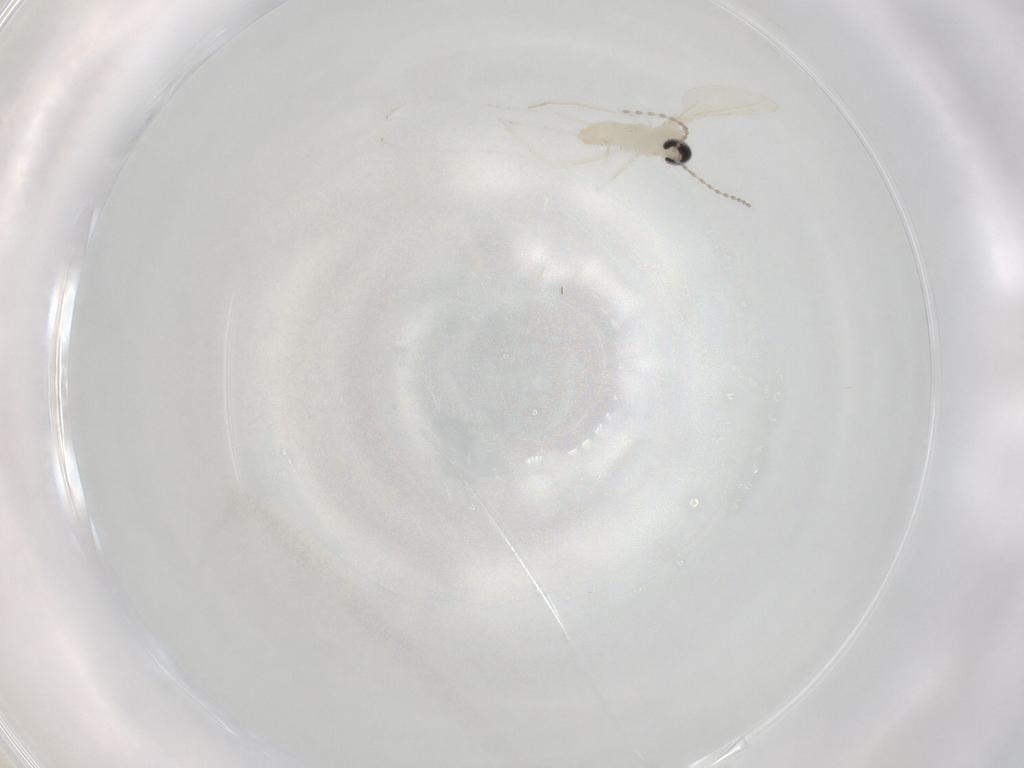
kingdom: Animalia
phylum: Arthropoda
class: Insecta
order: Diptera
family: Cecidomyiidae
